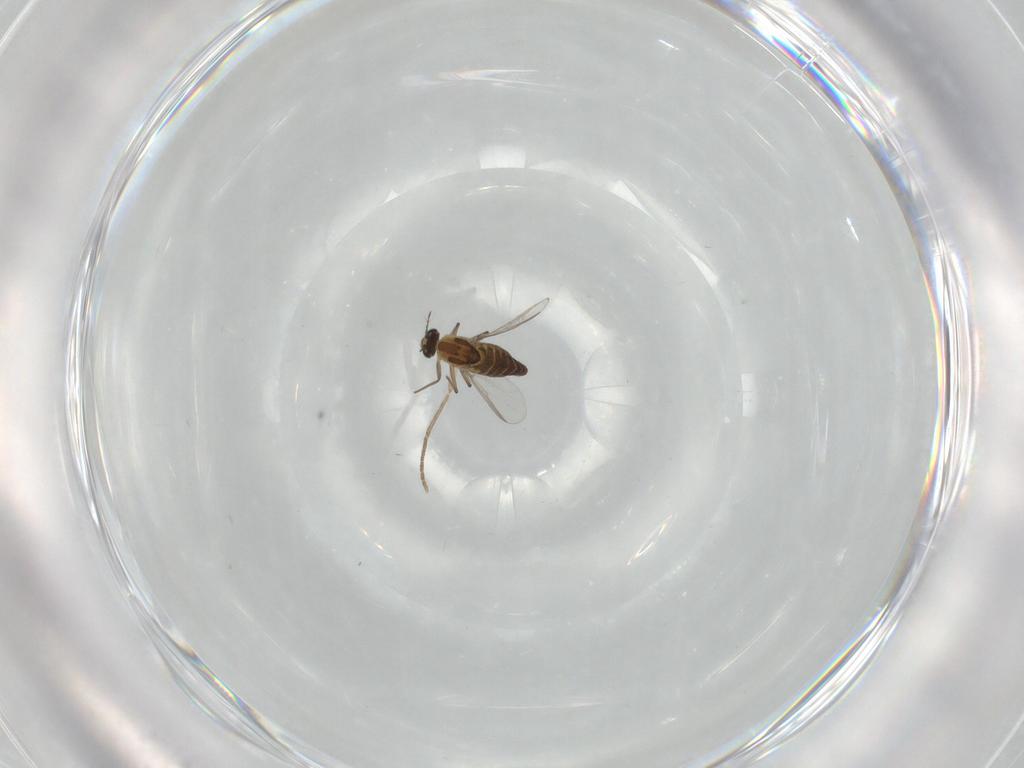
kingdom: Animalia
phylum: Arthropoda
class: Insecta
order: Diptera
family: Chironomidae
